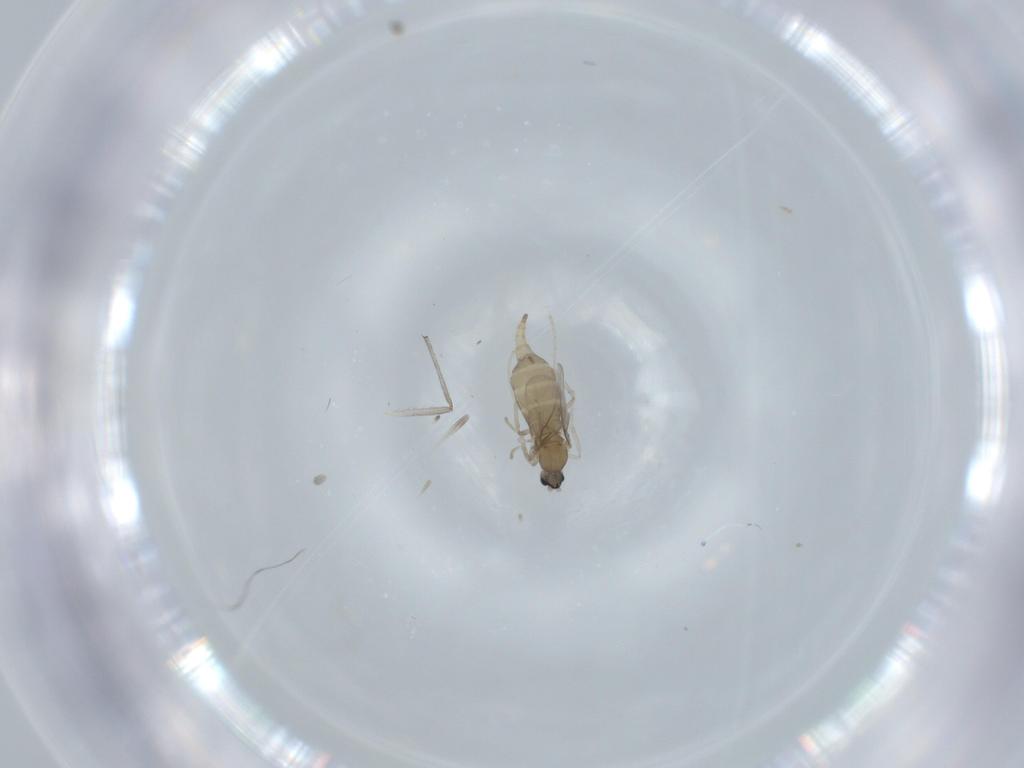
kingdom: Animalia
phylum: Arthropoda
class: Insecta
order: Diptera
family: Cecidomyiidae
